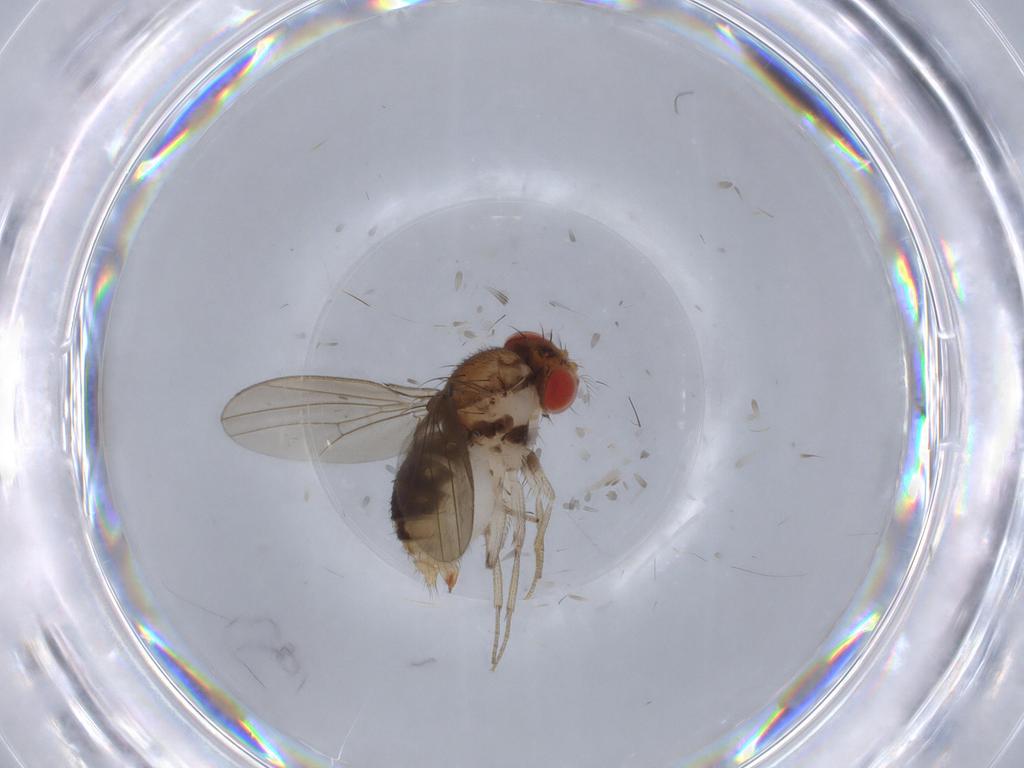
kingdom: Animalia
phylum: Arthropoda
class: Insecta
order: Diptera
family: Drosophilidae
